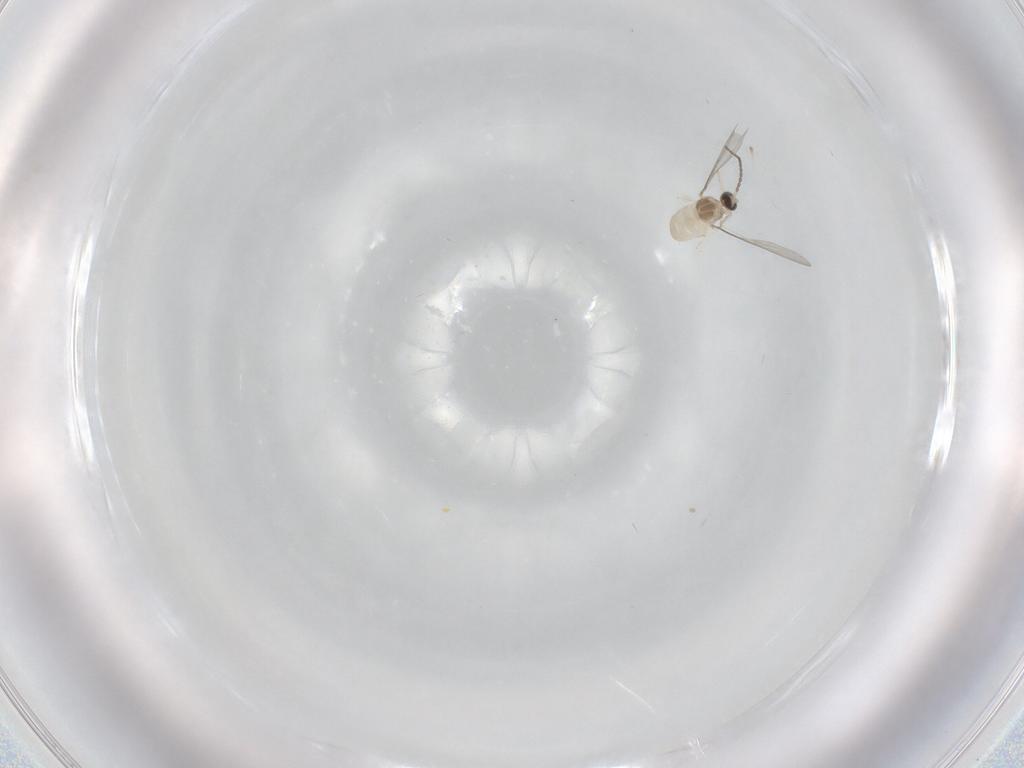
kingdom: Animalia
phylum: Arthropoda
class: Insecta
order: Diptera
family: Cecidomyiidae
